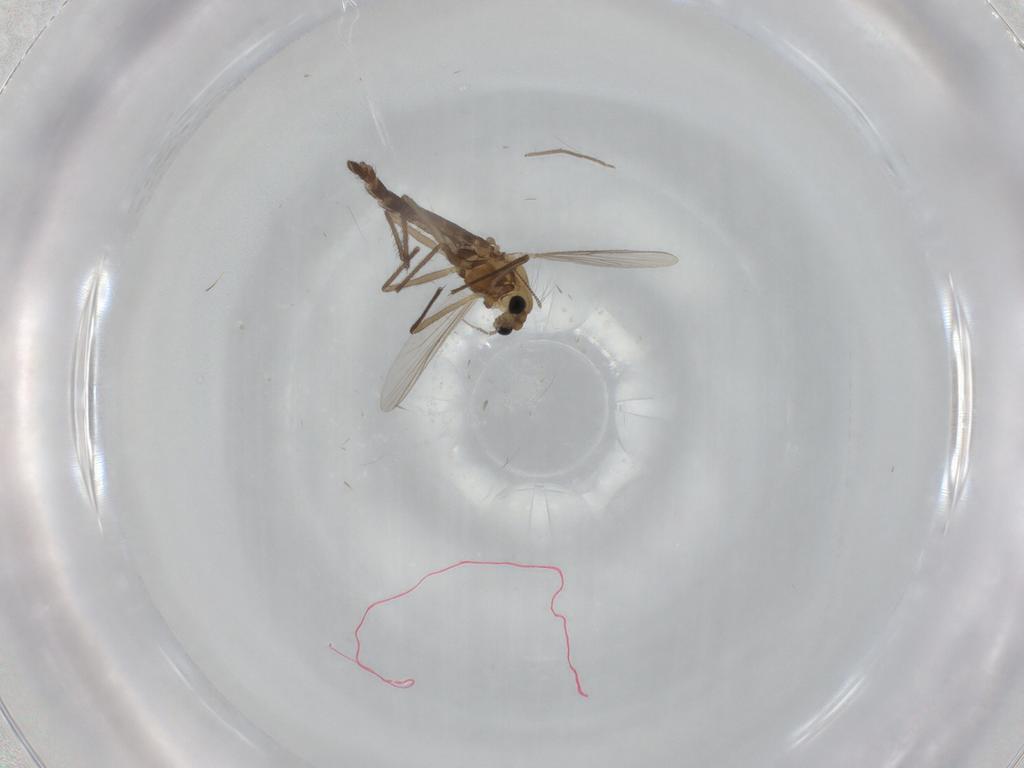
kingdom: Animalia
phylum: Arthropoda
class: Insecta
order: Diptera
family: Chironomidae
